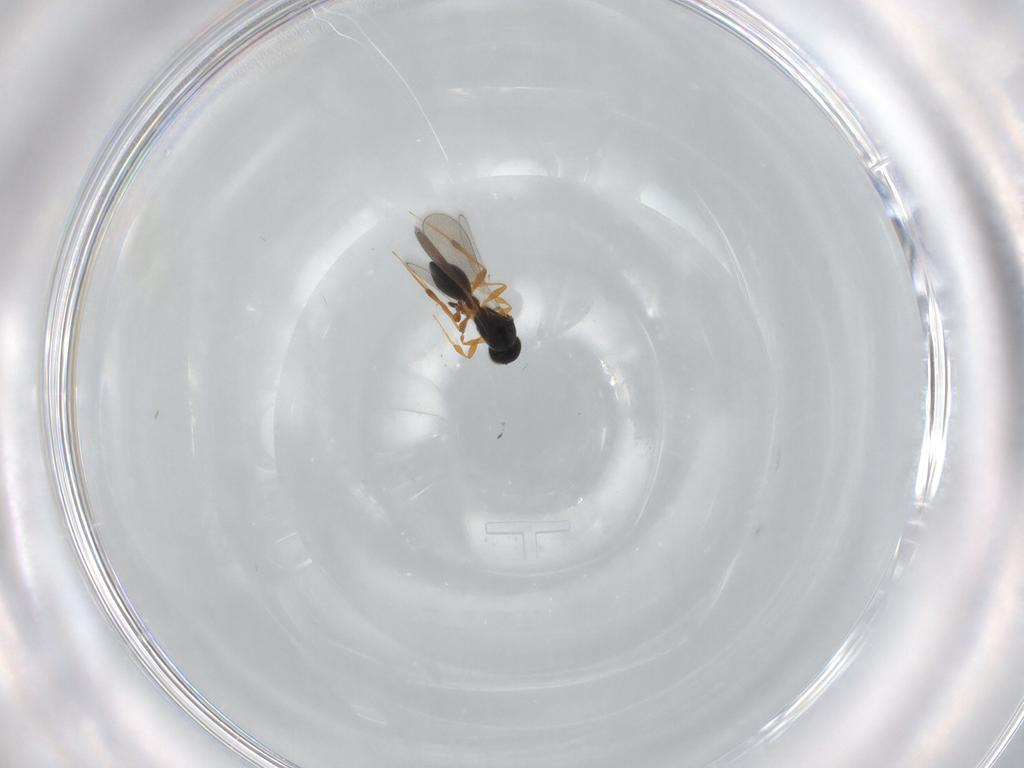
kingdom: Animalia
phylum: Arthropoda
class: Insecta
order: Hymenoptera
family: Platygastridae
